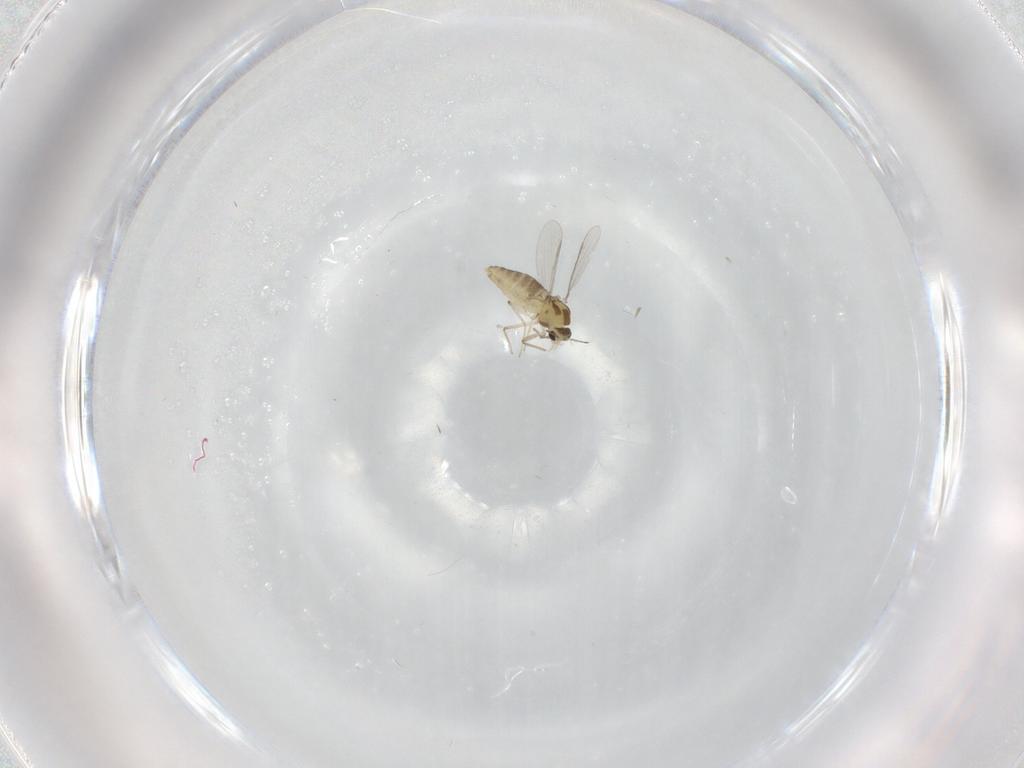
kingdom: Animalia
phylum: Arthropoda
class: Insecta
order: Diptera
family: Chironomidae
